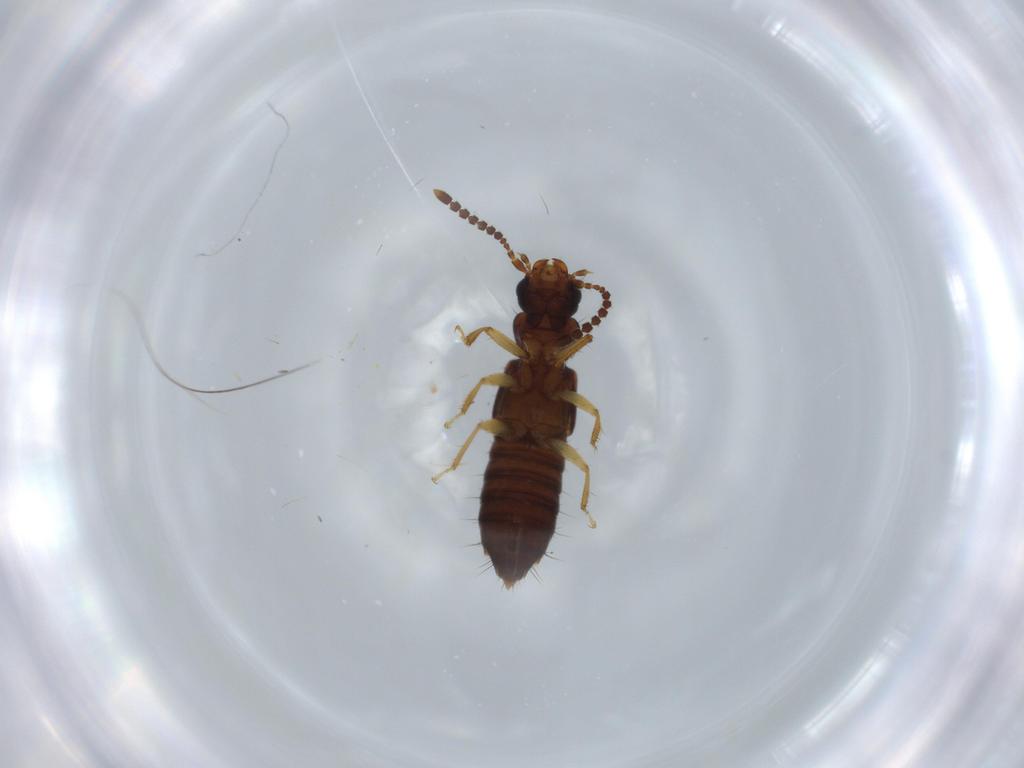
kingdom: Animalia
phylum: Arthropoda
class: Insecta
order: Coleoptera
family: Staphylinidae
